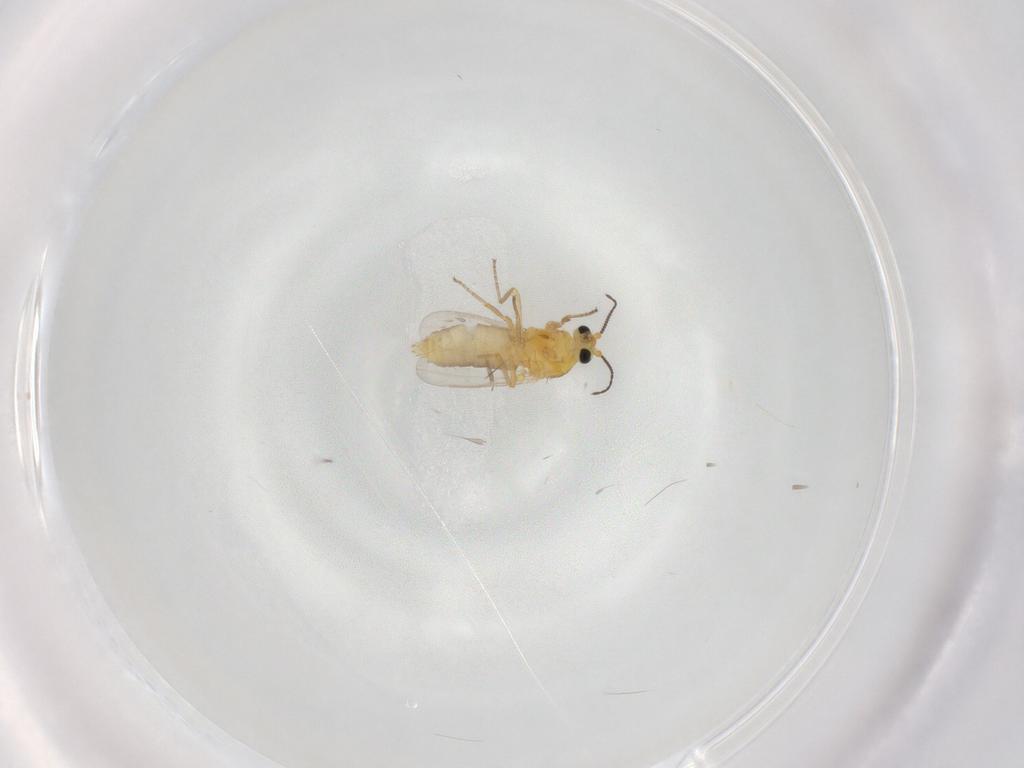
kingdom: Animalia
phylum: Arthropoda
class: Insecta
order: Diptera
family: Ceratopogonidae
